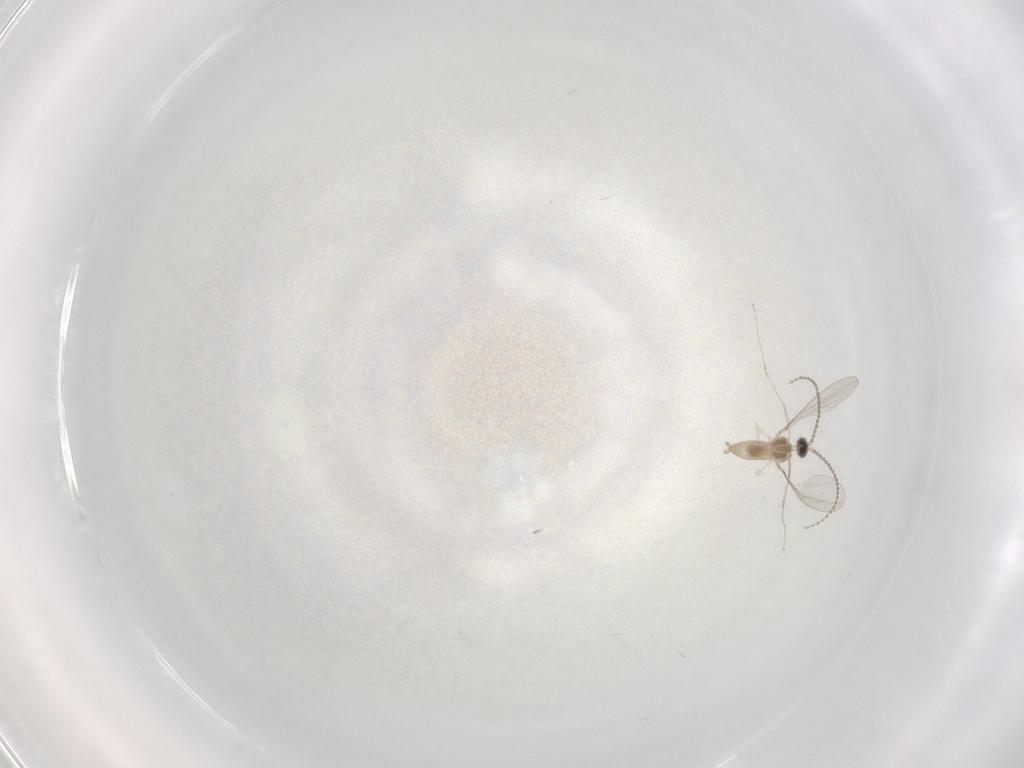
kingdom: Animalia
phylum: Arthropoda
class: Insecta
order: Diptera
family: Cecidomyiidae
